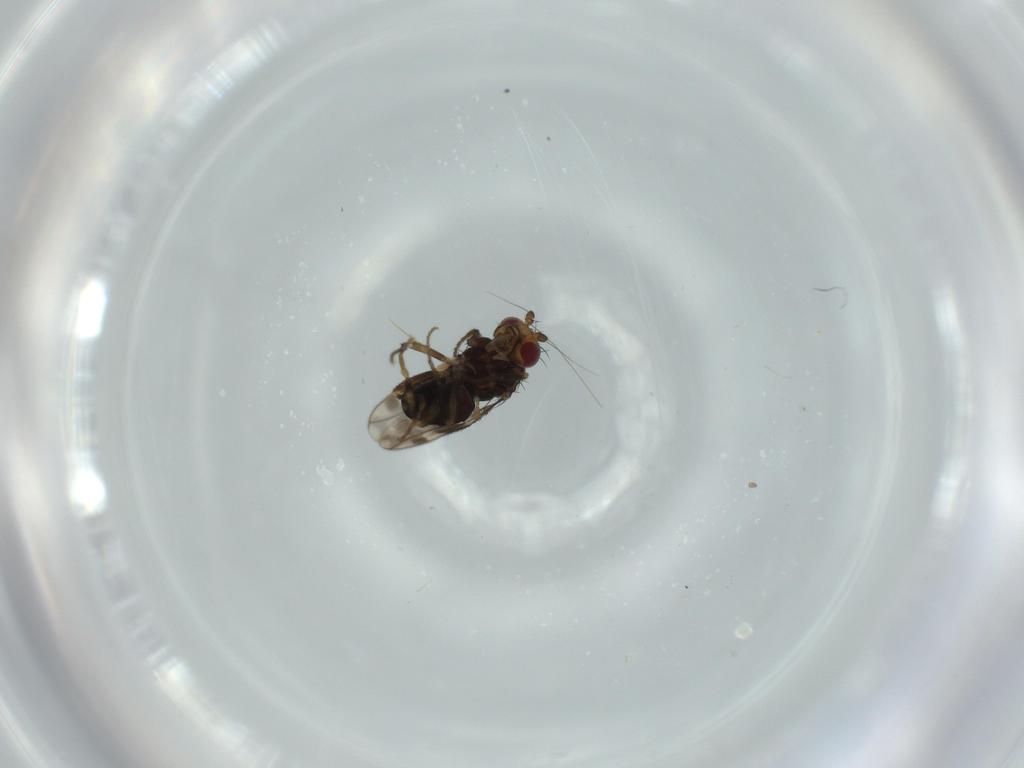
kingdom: Animalia
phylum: Arthropoda
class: Insecta
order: Diptera
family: Sphaeroceridae
